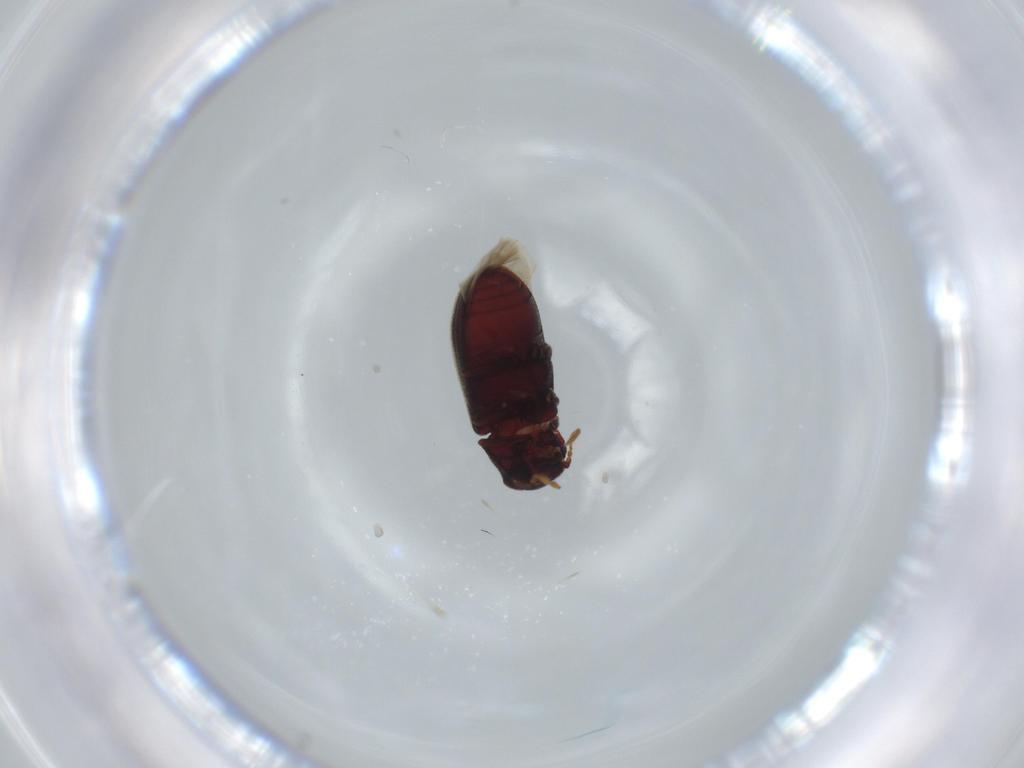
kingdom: Animalia
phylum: Arthropoda
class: Insecta
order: Coleoptera
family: Anobiidae
